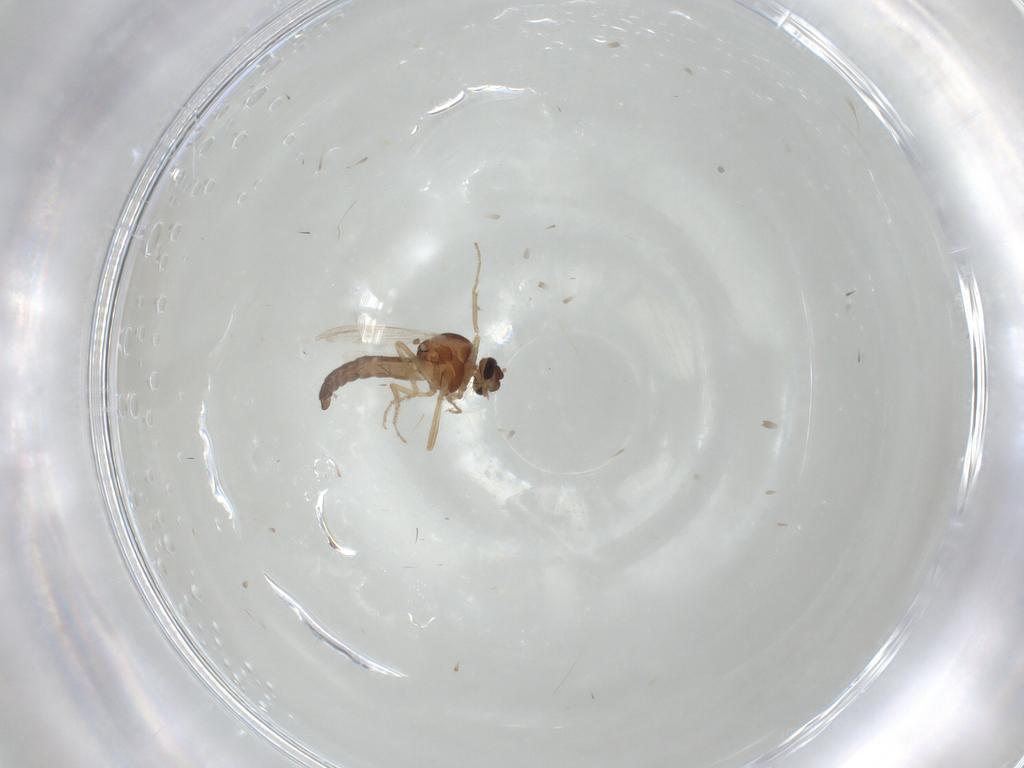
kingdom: Animalia
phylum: Arthropoda
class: Insecta
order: Diptera
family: Ceratopogonidae
